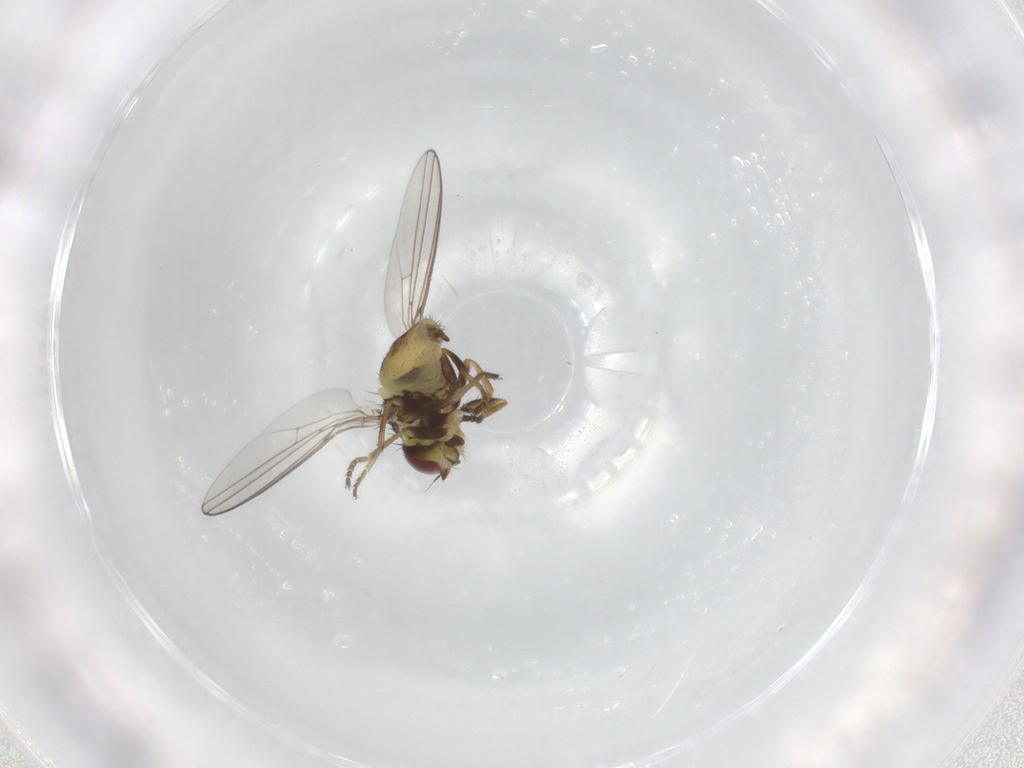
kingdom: Animalia
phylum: Arthropoda
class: Insecta
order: Diptera
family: Chloropidae
